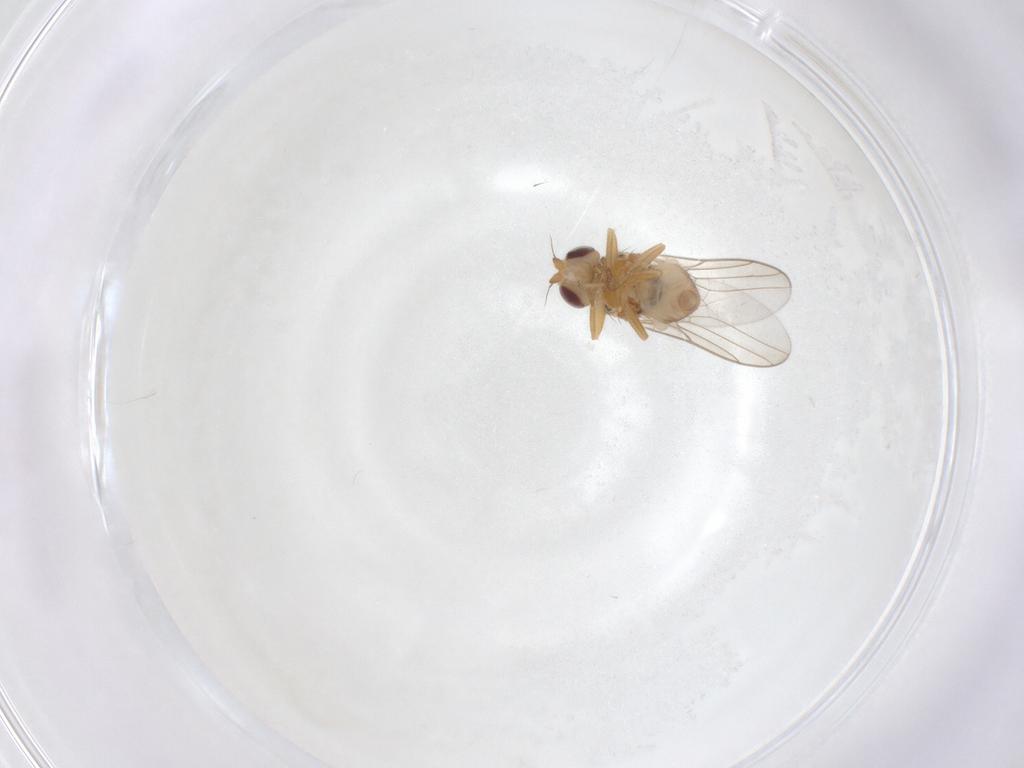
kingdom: Animalia
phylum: Arthropoda
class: Insecta
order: Diptera
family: Chloropidae
